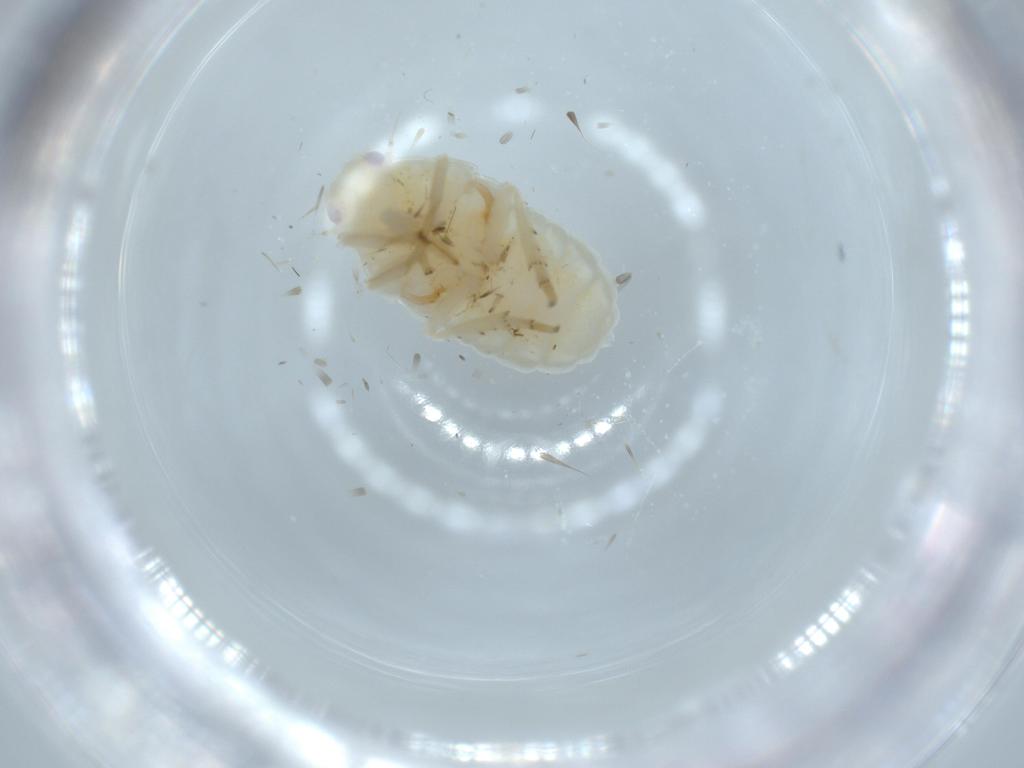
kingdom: Animalia
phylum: Arthropoda
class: Insecta
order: Hemiptera
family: Flatidae
